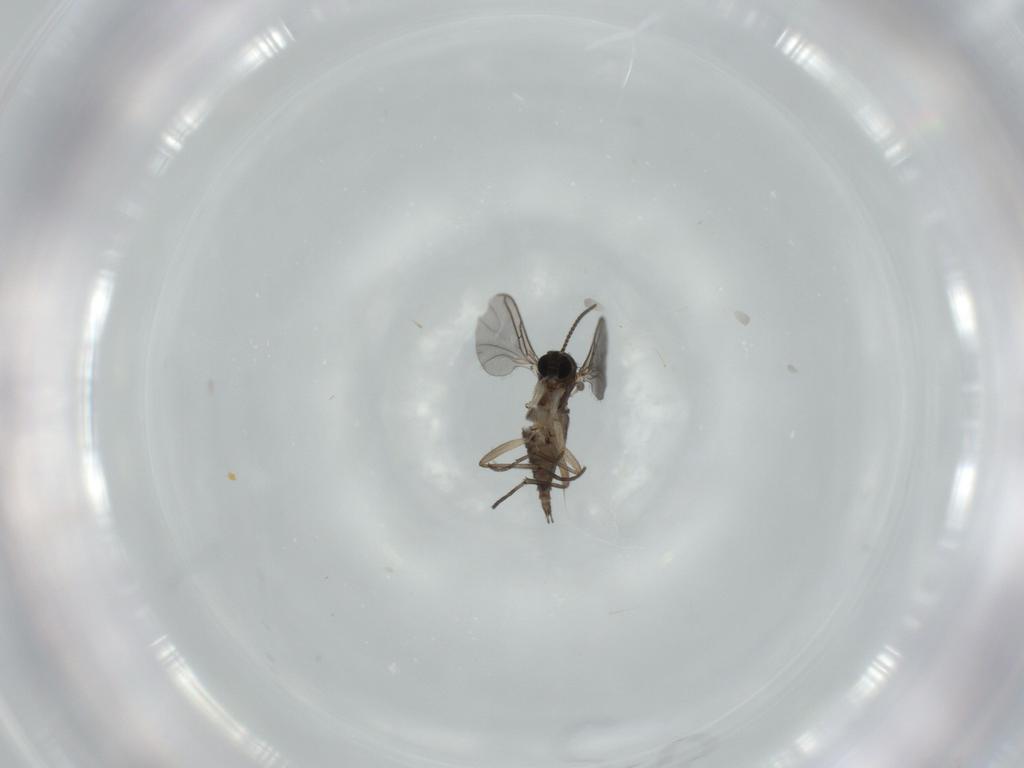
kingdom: Animalia
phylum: Arthropoda
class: Insecta
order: Diptera
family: Sciaridae
